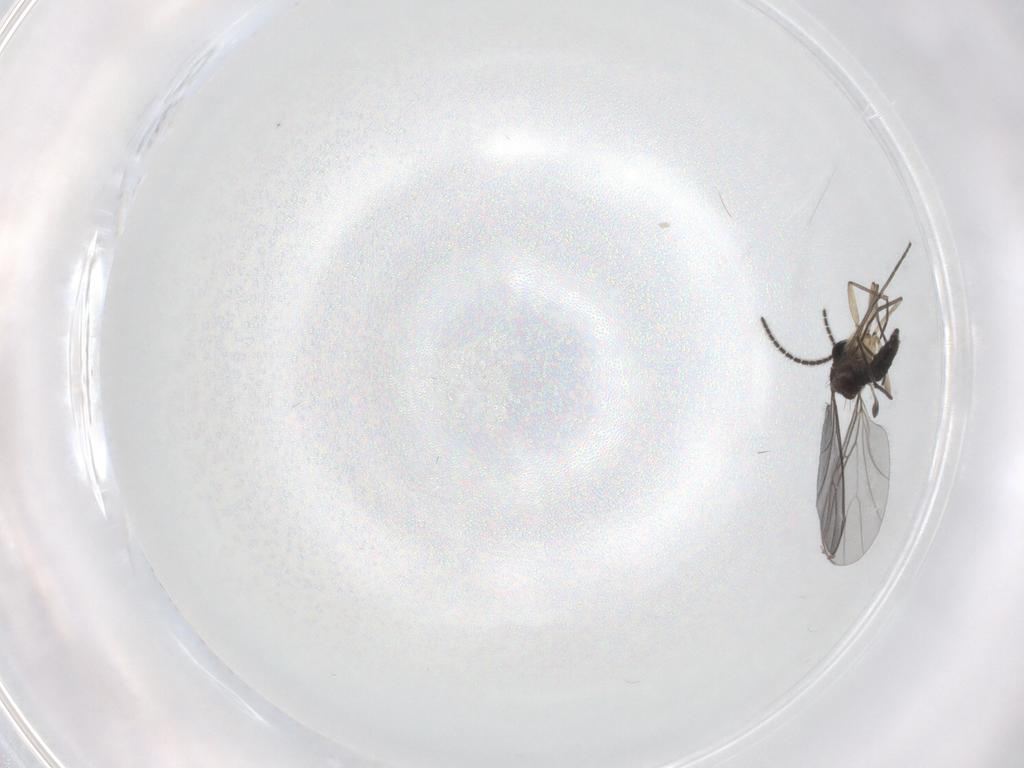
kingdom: Animalia
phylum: Arthropoda
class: Insecta
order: Diptera
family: Sciaridae
